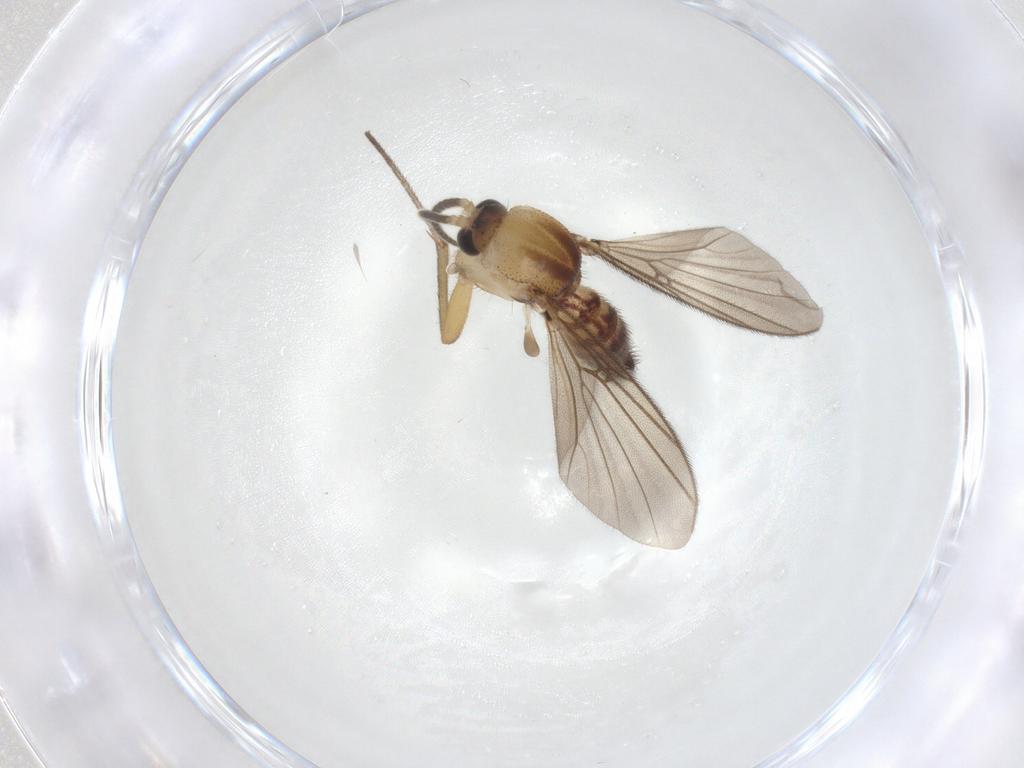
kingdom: Animalia
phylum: Arthropoda
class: Insecta
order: Diptera
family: Mycetophilidae
